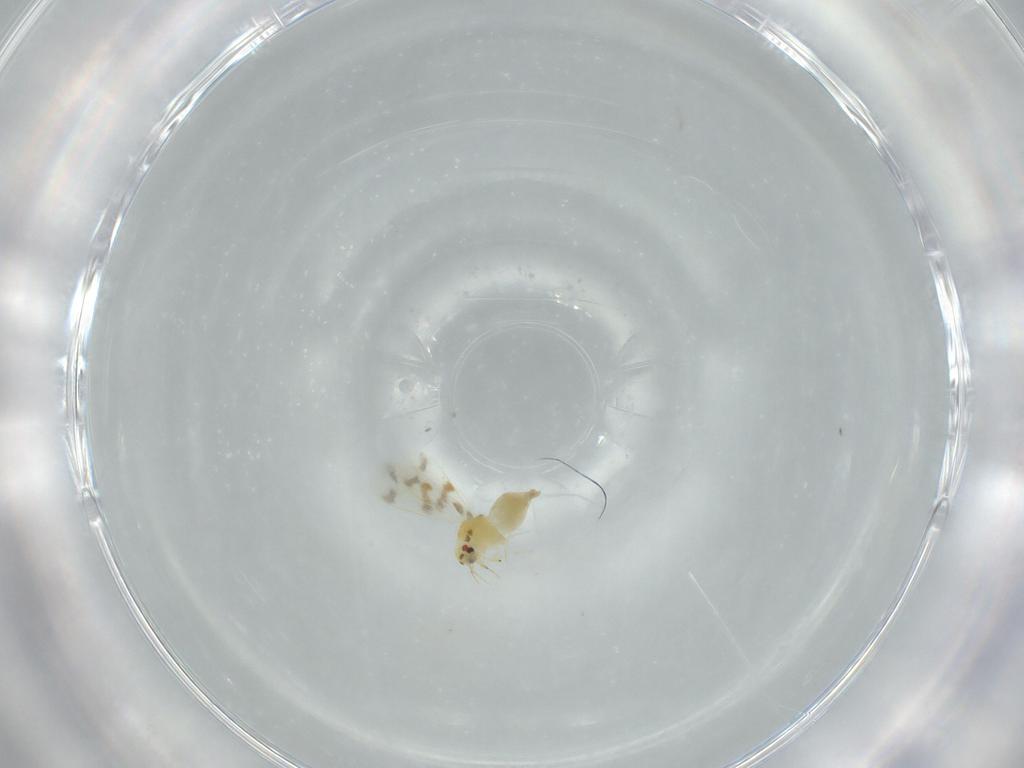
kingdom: Animalia
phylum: Arthropoda
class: Insecta
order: Hemiptera
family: Aleyrodidae
